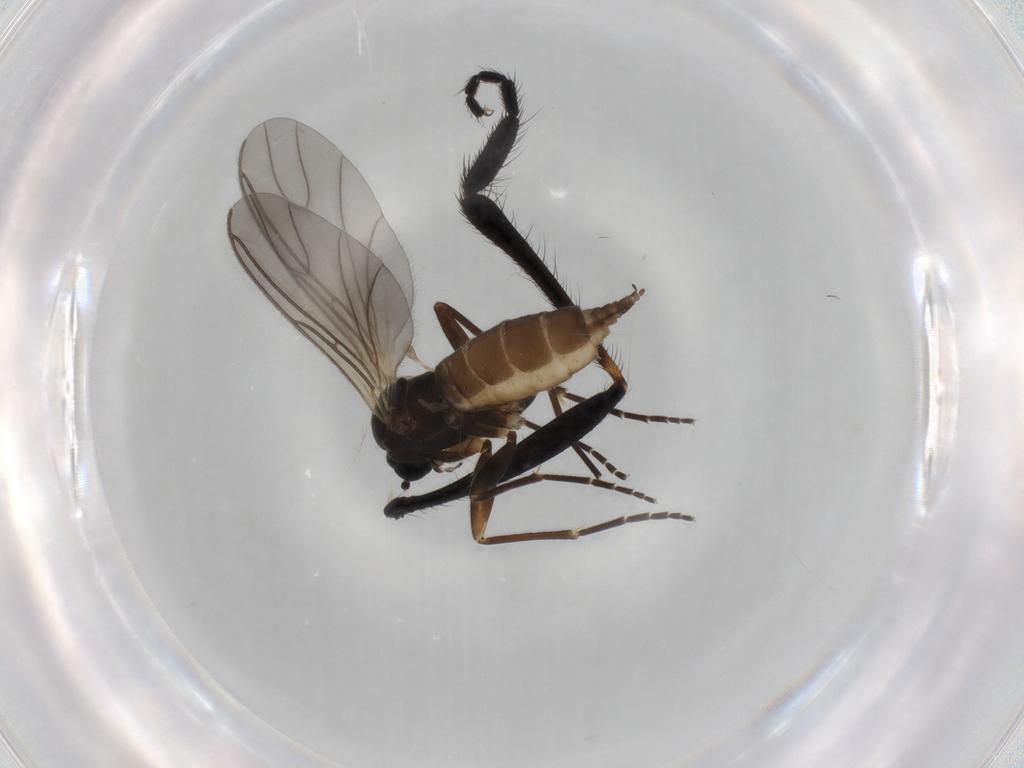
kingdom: Animalia
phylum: Arthropoda
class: Insecta
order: Diptera
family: Sciaridae
